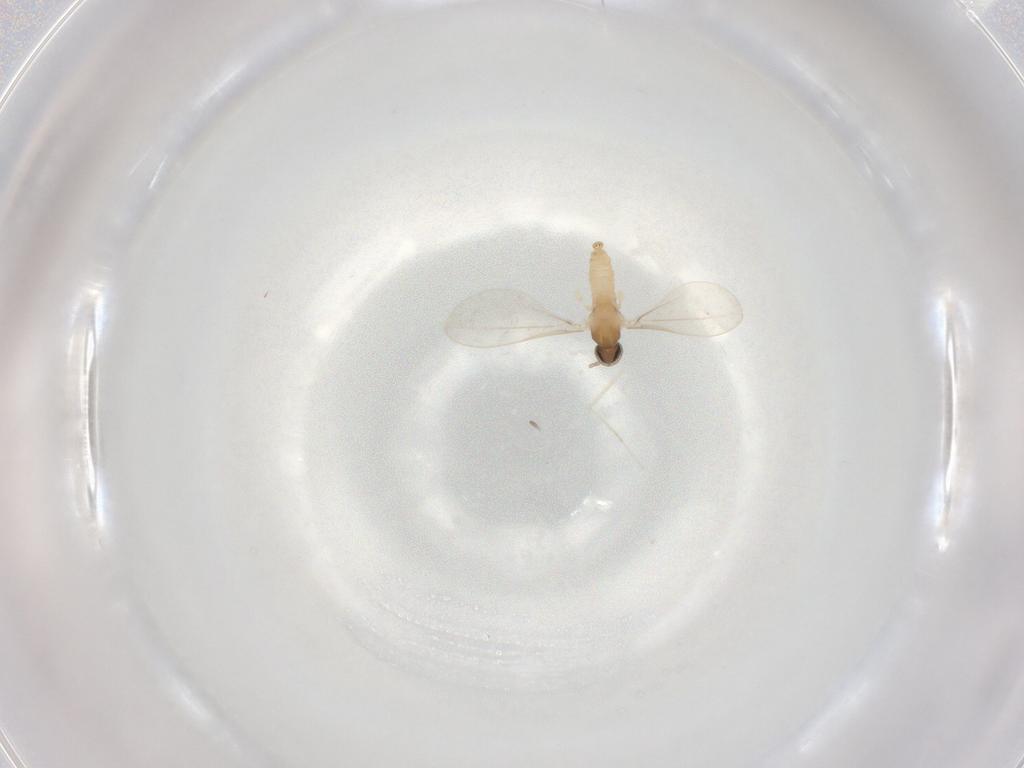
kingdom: Animalia
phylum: Arthropoda
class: Insecta
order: Diptera
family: Cecidomyiidae
